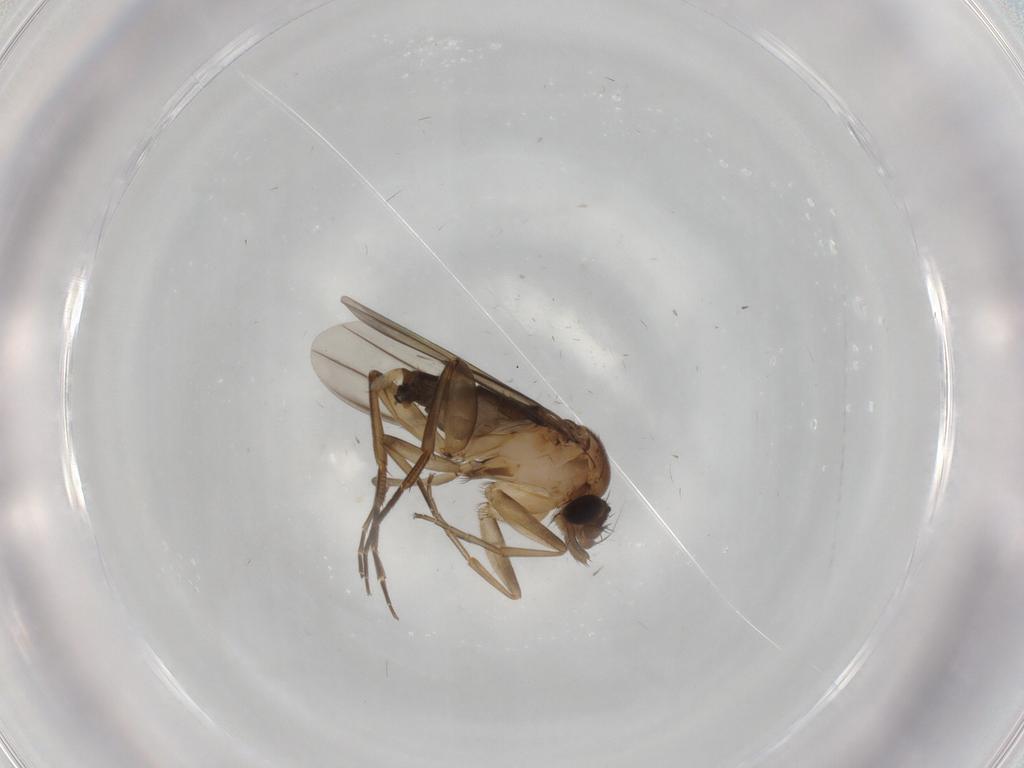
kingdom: Animalia
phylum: Arthropoda
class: Insecta
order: Diptera
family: Phoridae
